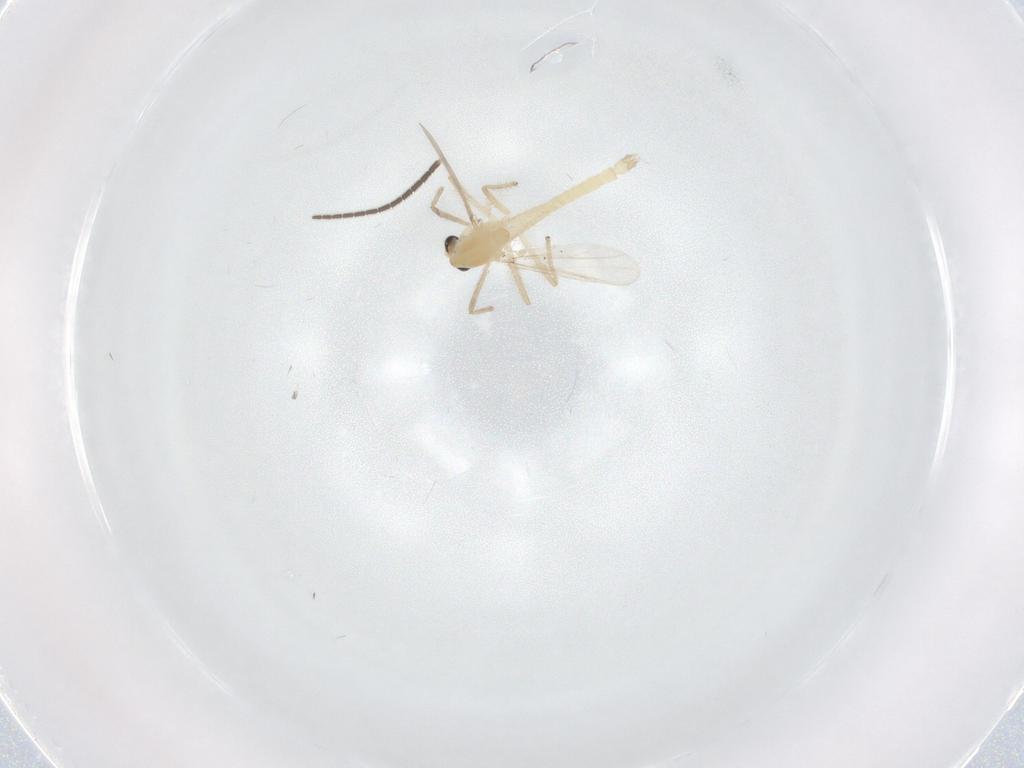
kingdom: Animalia
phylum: Arthropoda
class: Insecta
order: Diptera
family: Chironomidae
